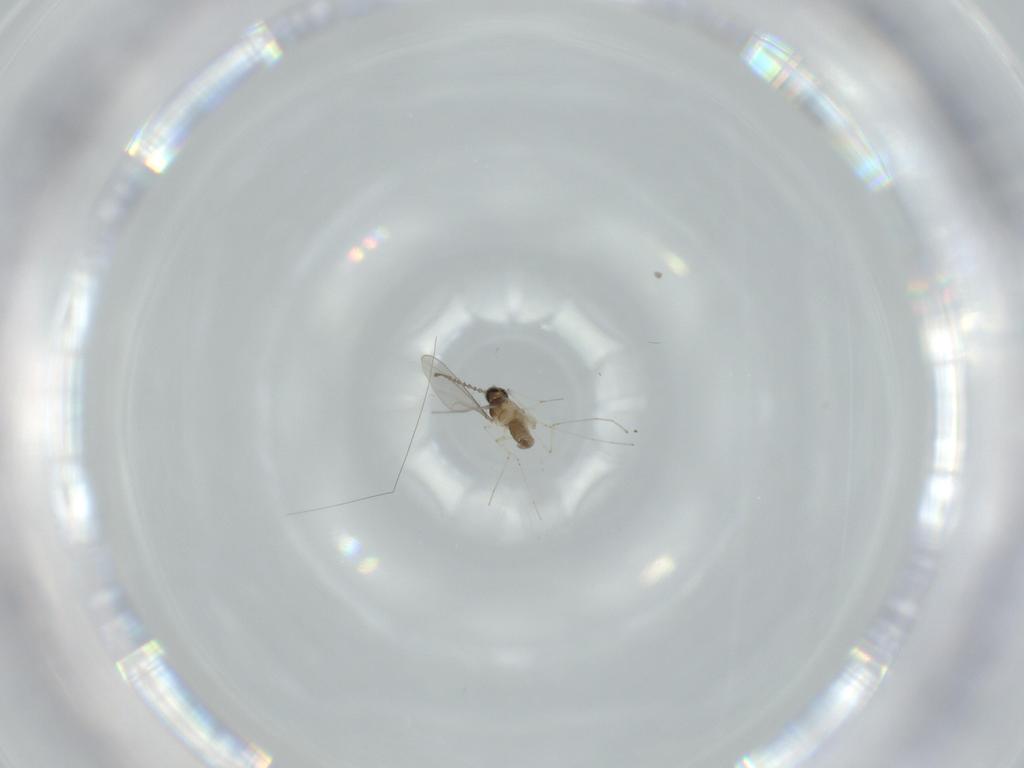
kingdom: Animalia
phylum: Arthropoda
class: Insecta
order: Diptera
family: Cecidomyiidae
